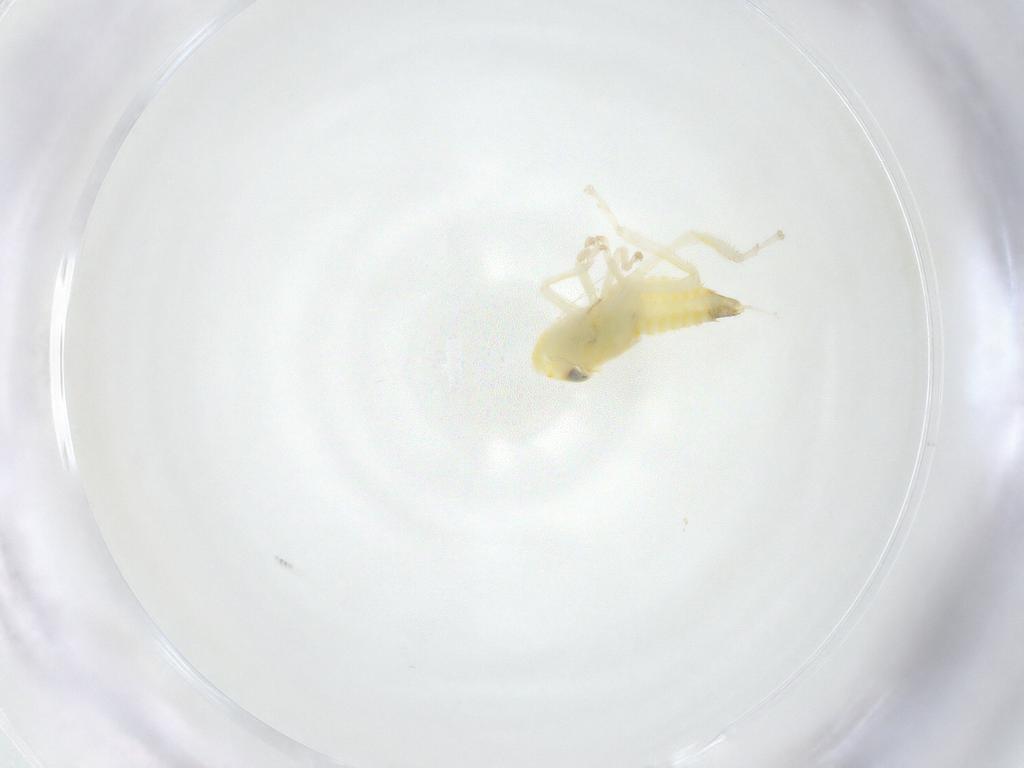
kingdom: Animalia
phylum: Arthropoda
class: Insecta
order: Hemiptera
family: Cicadellidae
